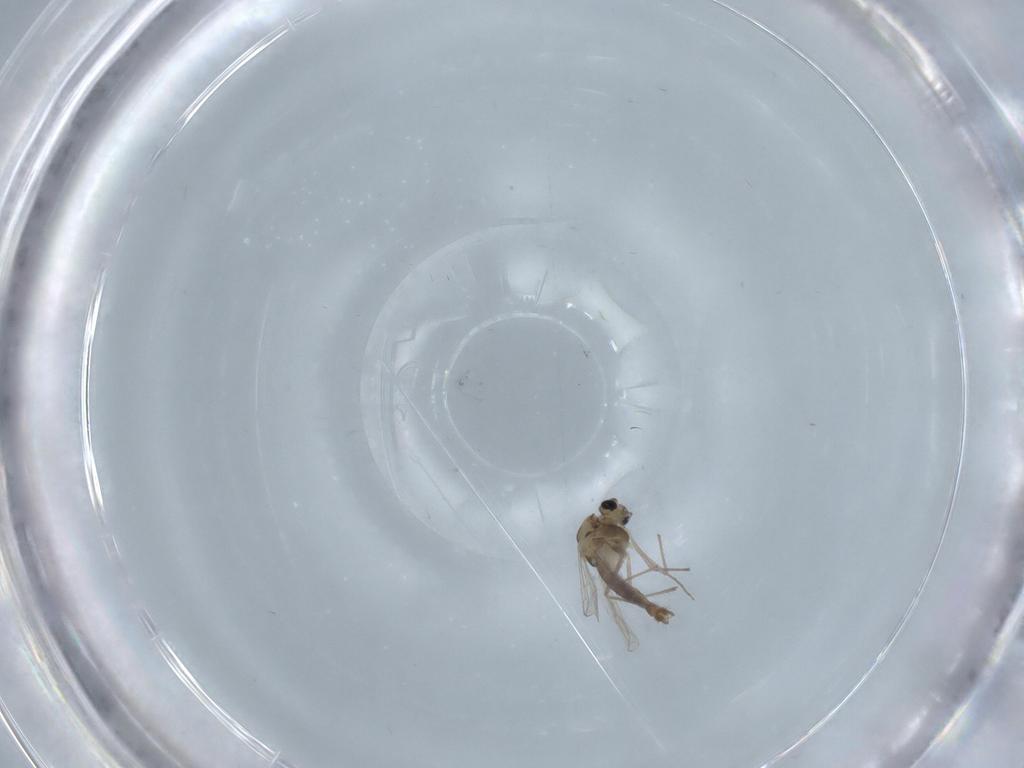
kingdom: Animalia
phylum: Arthropoda
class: Insecta
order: Diptera
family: Chironomidae
